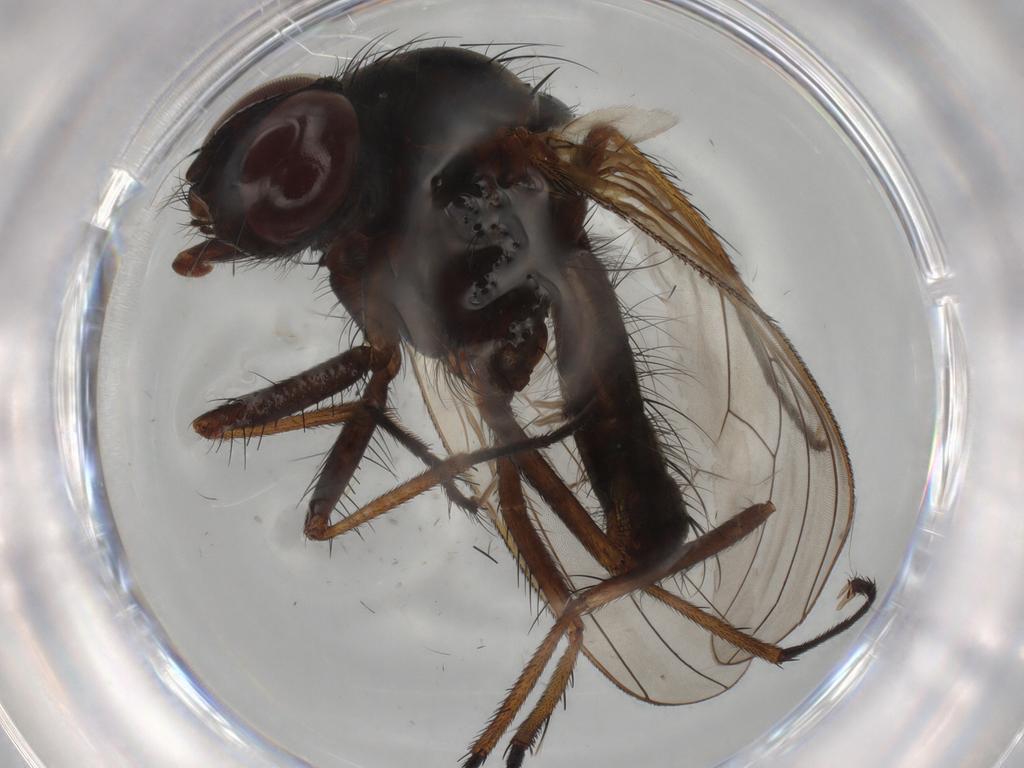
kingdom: Animalia
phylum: Arthropoda
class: Insecta
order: Diptera
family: Anthomyiidae
